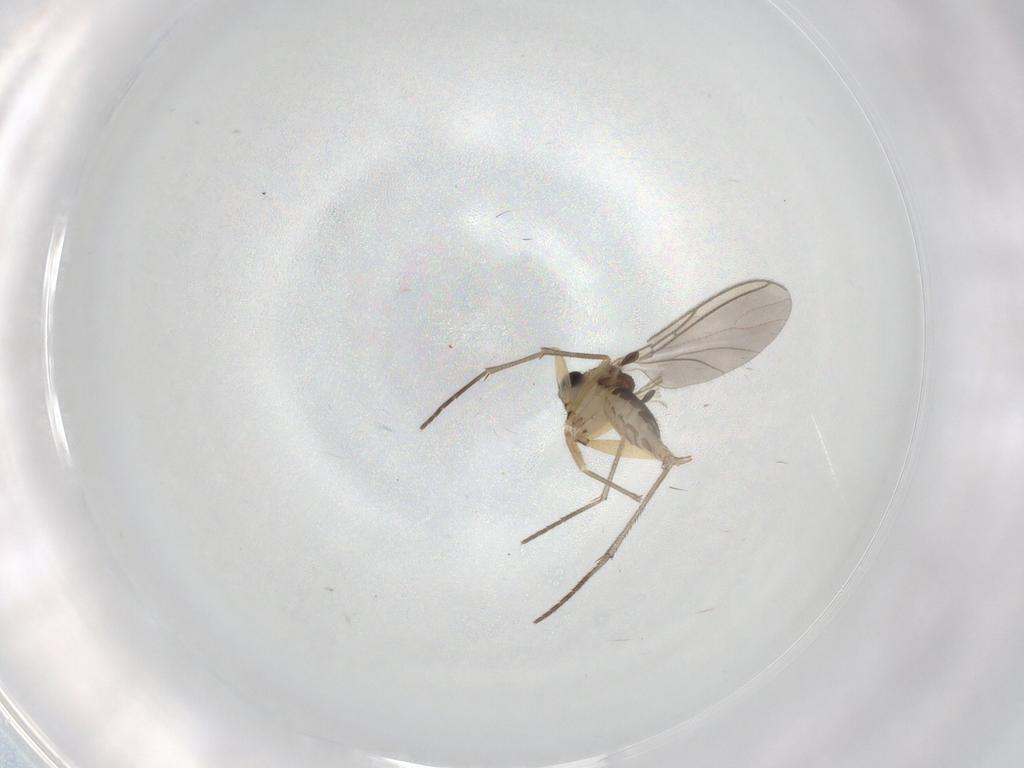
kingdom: Animalia
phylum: Arthropoda
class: Insecta
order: Diptera
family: Sciaridae
